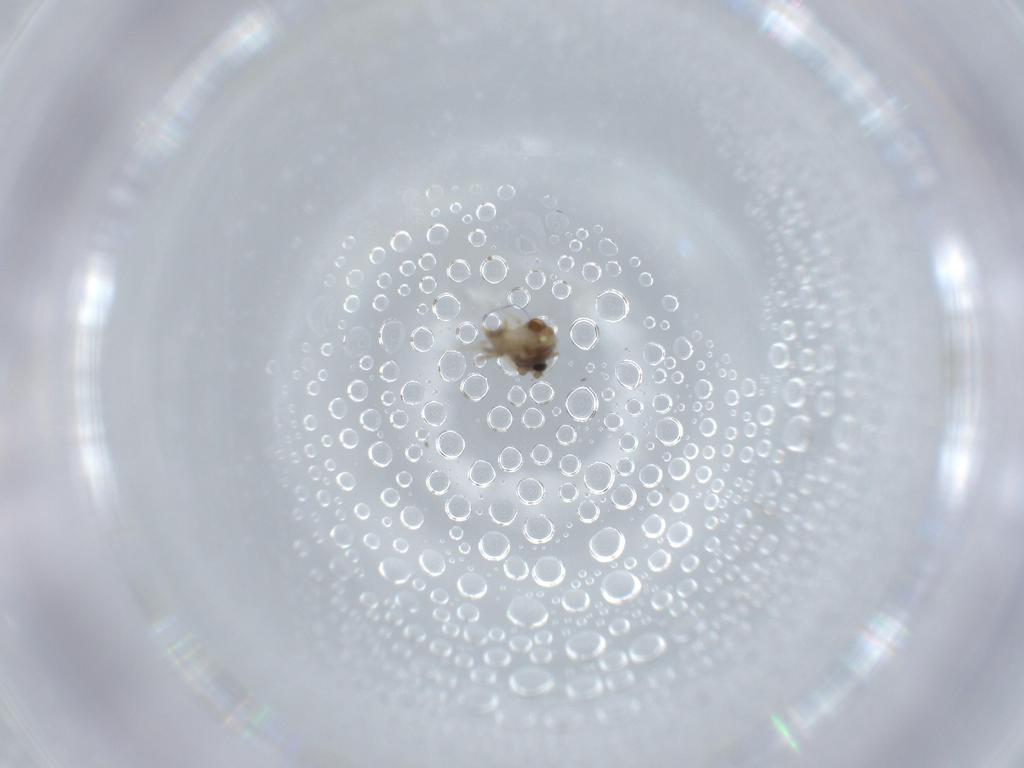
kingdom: Animalia
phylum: Arthropoda
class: Insecta
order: Diptera
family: Ceratopogonidae
